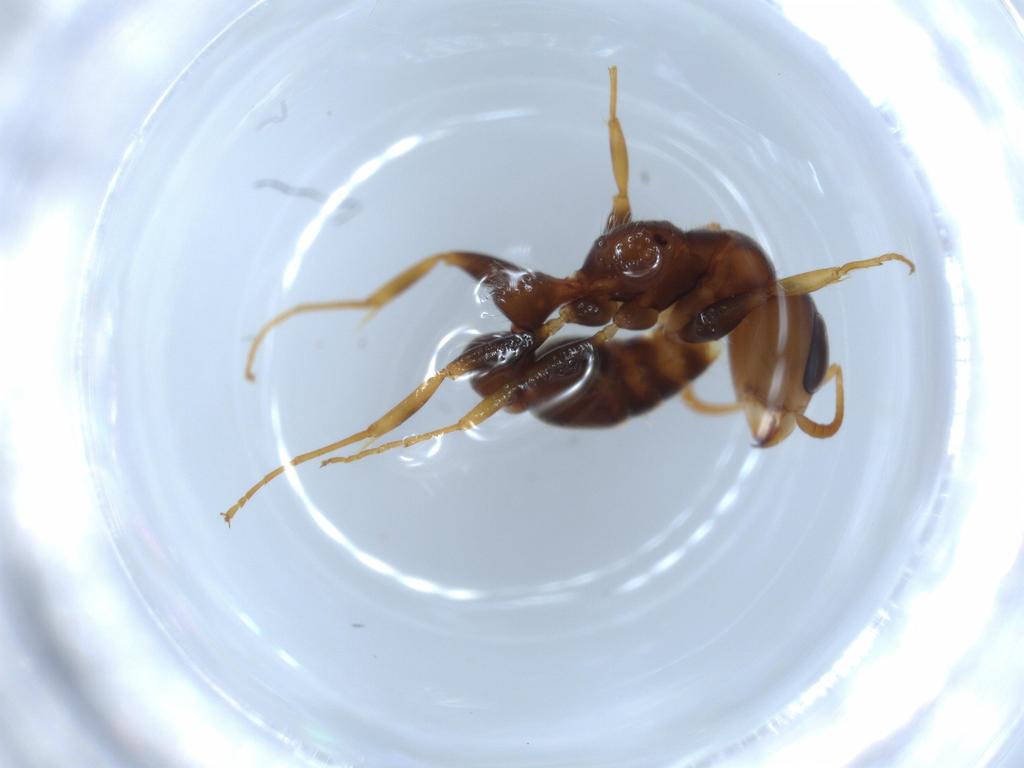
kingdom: Animalia
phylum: Arthropoda
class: Insecta
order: Hymenoptera
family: Formicidae
